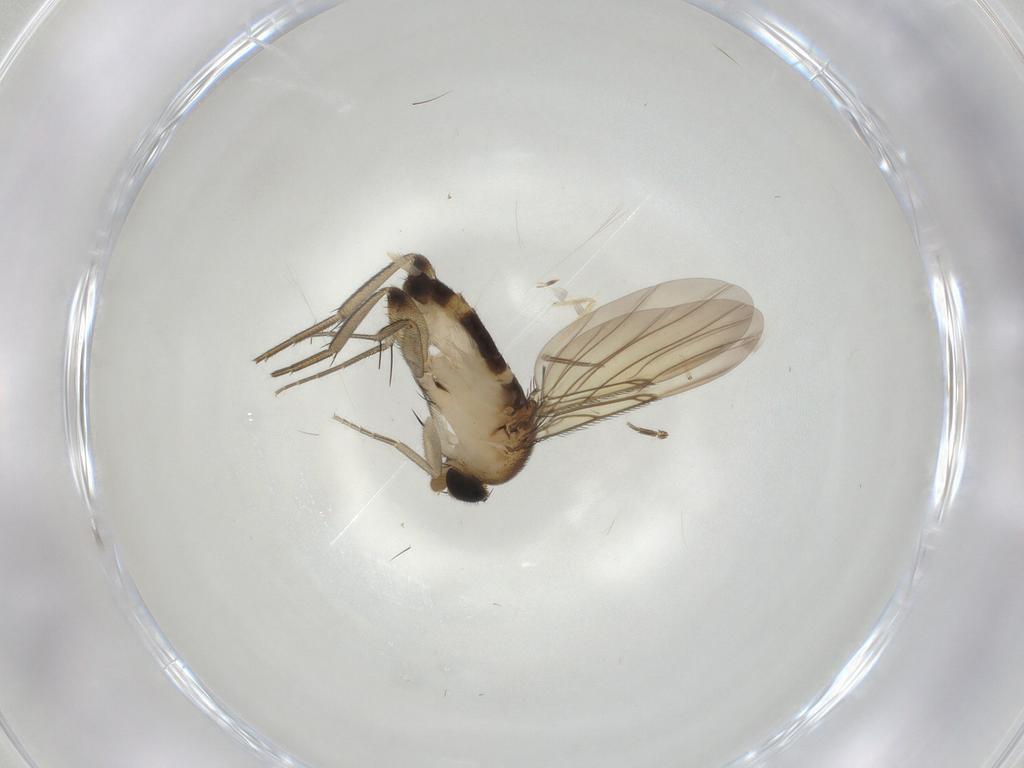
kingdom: Animalia
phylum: Arthropoda
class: Insecta
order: Diptera
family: Phoridae
